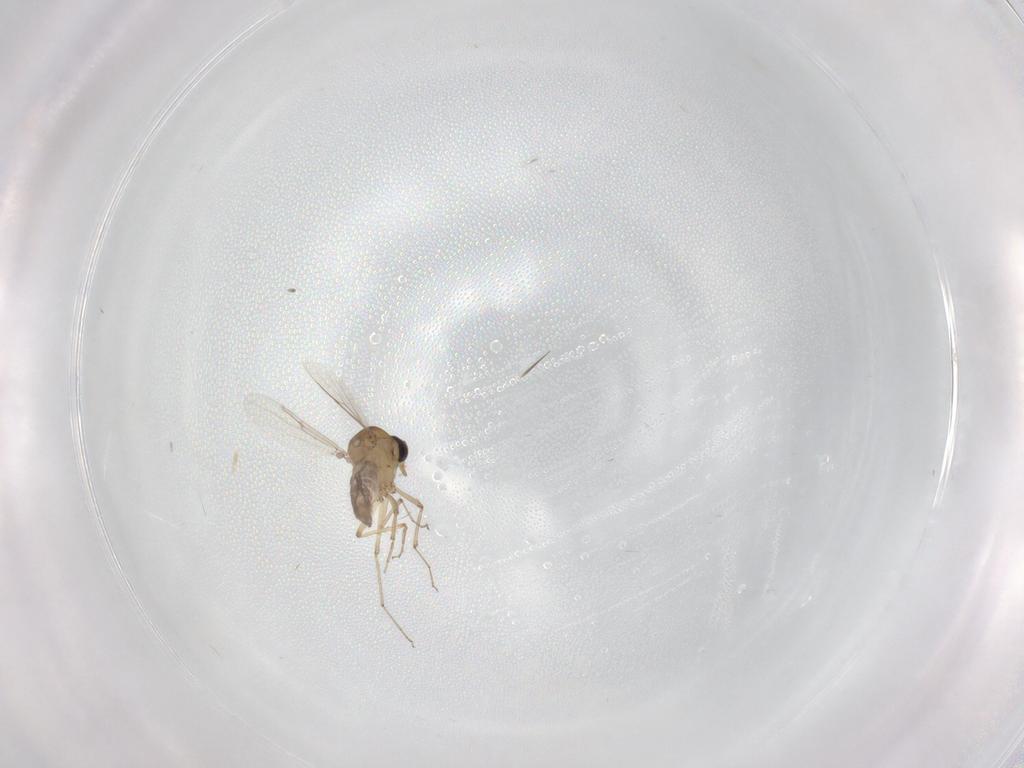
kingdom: Animalia
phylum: Arthropoda
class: Insecta
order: Diptera
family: Ceratopogonidae
